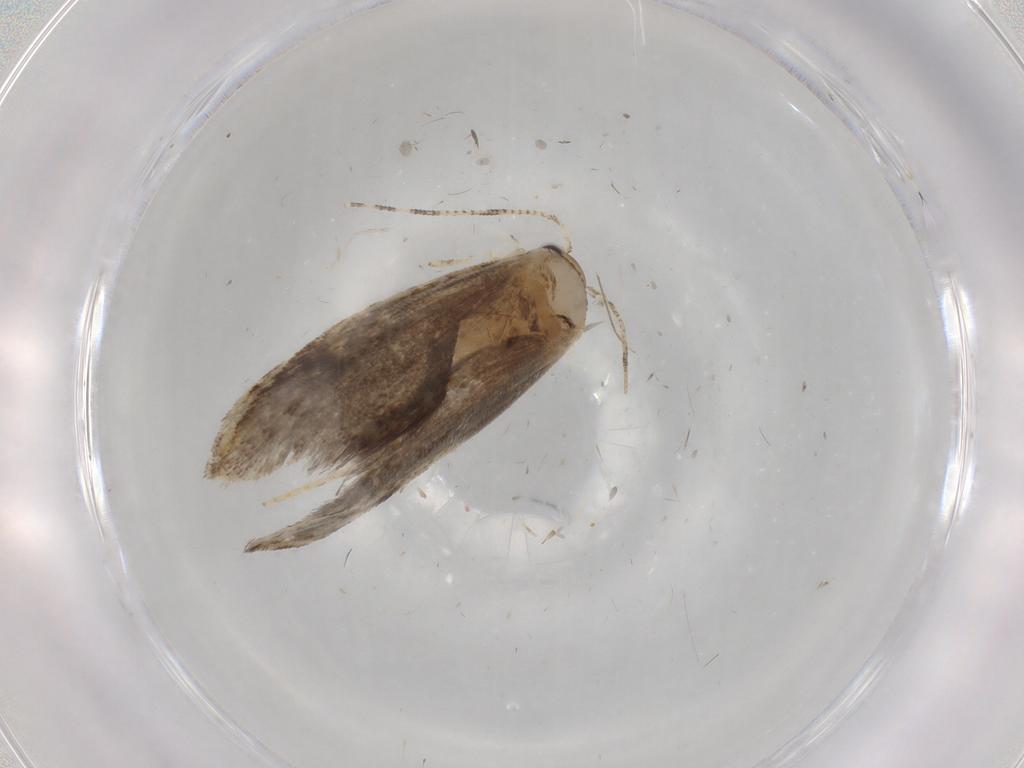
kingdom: Animalia
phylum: Arthropoda
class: Insecta
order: Lepidoptera
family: Tineidae
